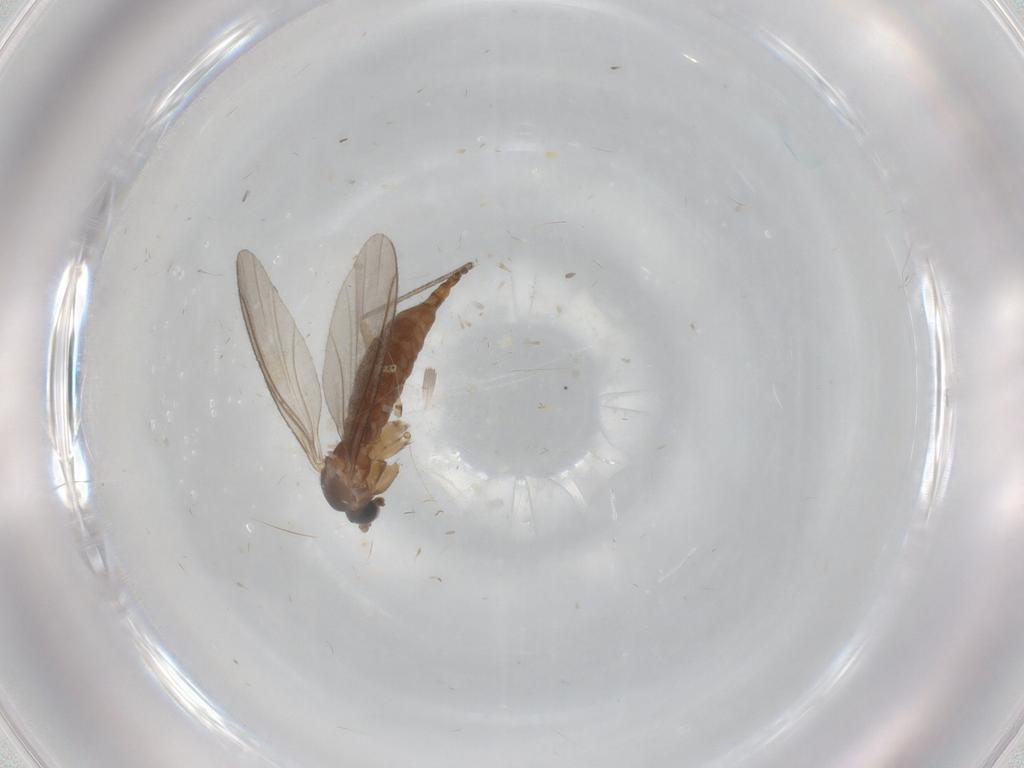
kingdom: Animalia
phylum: Arthropoda
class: Insecta
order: Diptera
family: Sciaridae
